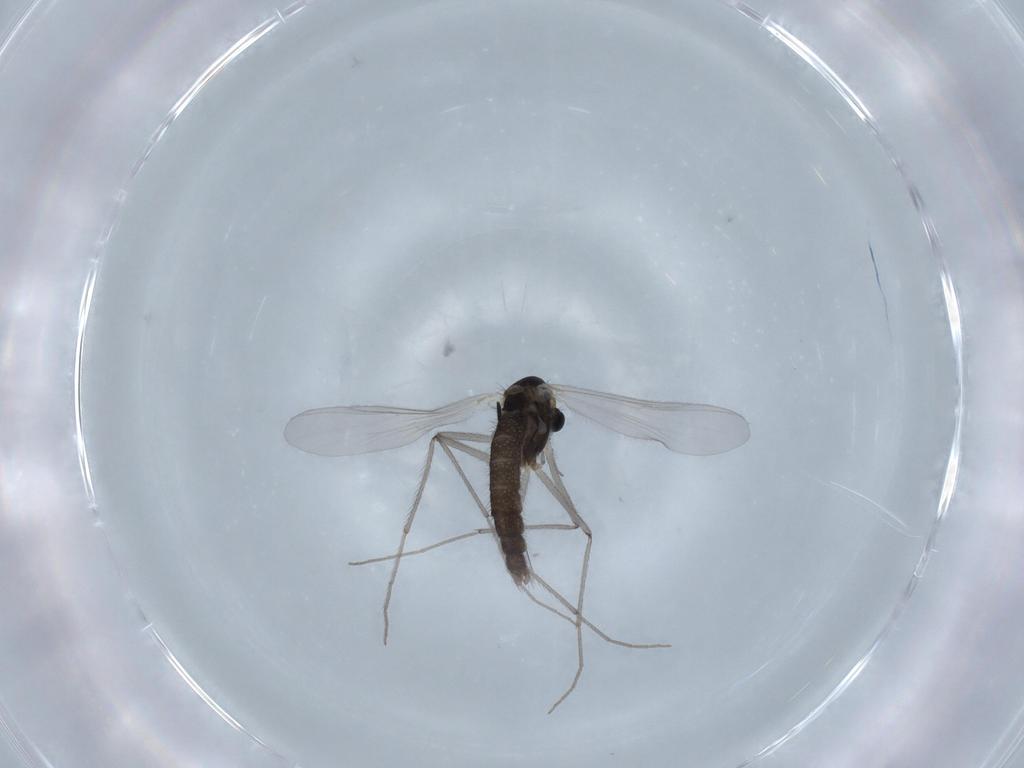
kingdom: Animalia
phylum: Arthropoda
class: Insecta
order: Diptera
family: Chironomidae
